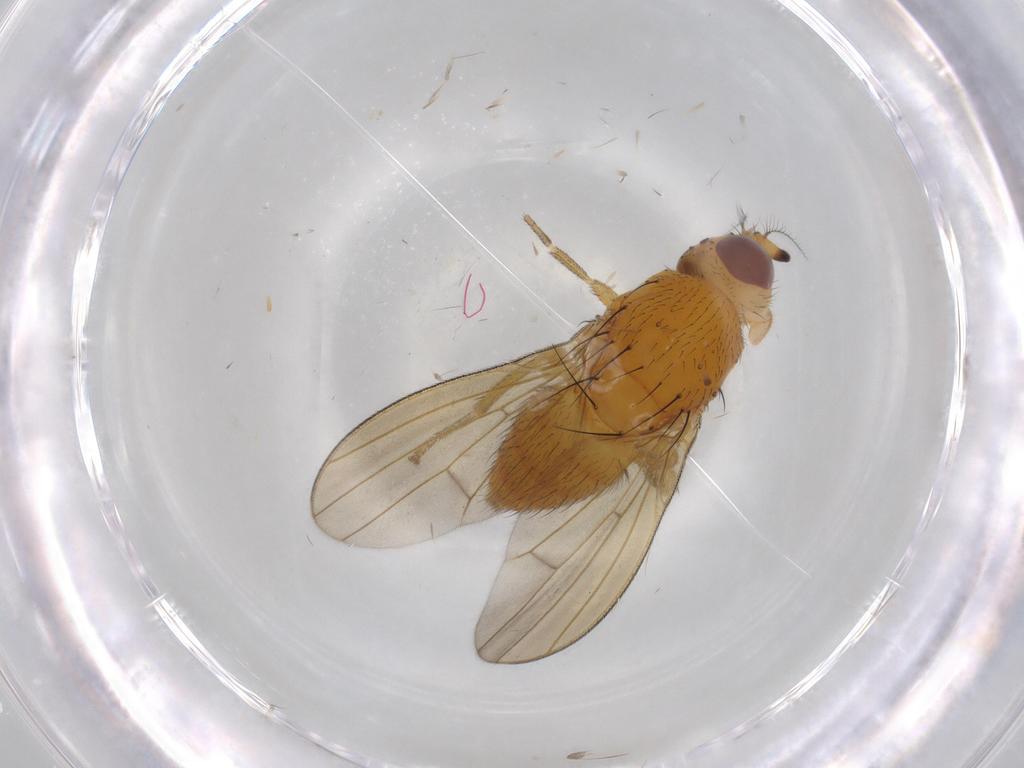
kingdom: Animalia
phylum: Arthropoda
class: Insecta
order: Diptera
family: Lauxaniidae
